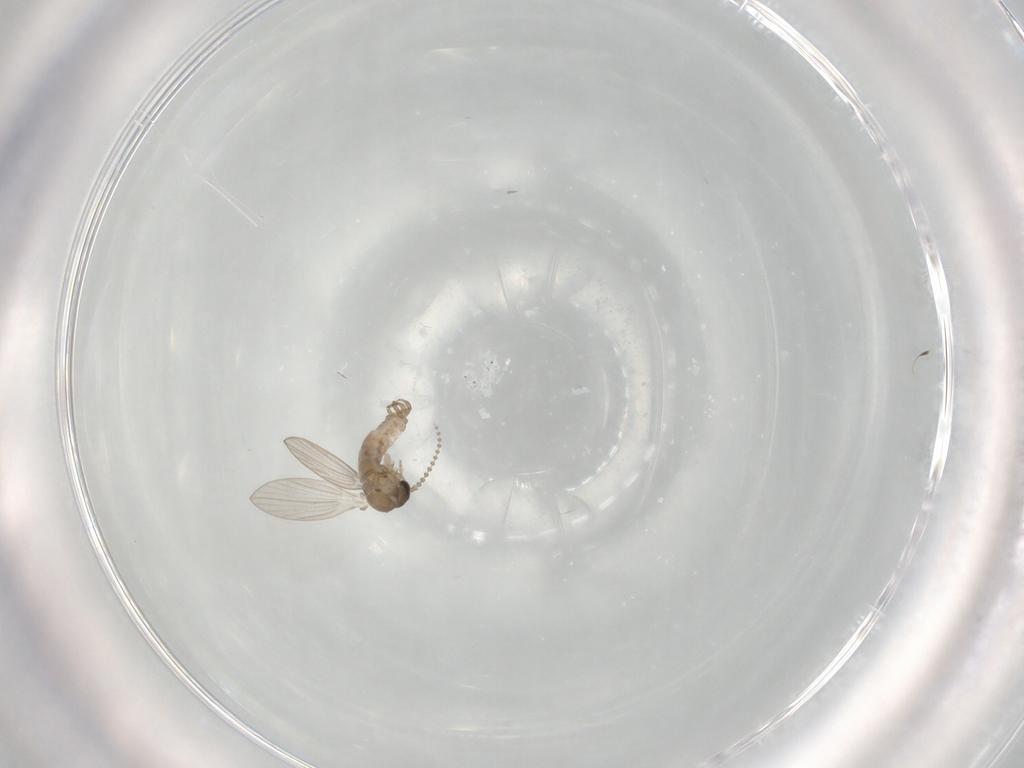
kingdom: Animalia
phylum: Arthropoda
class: Insecta
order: Diptera
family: Psychodidae
